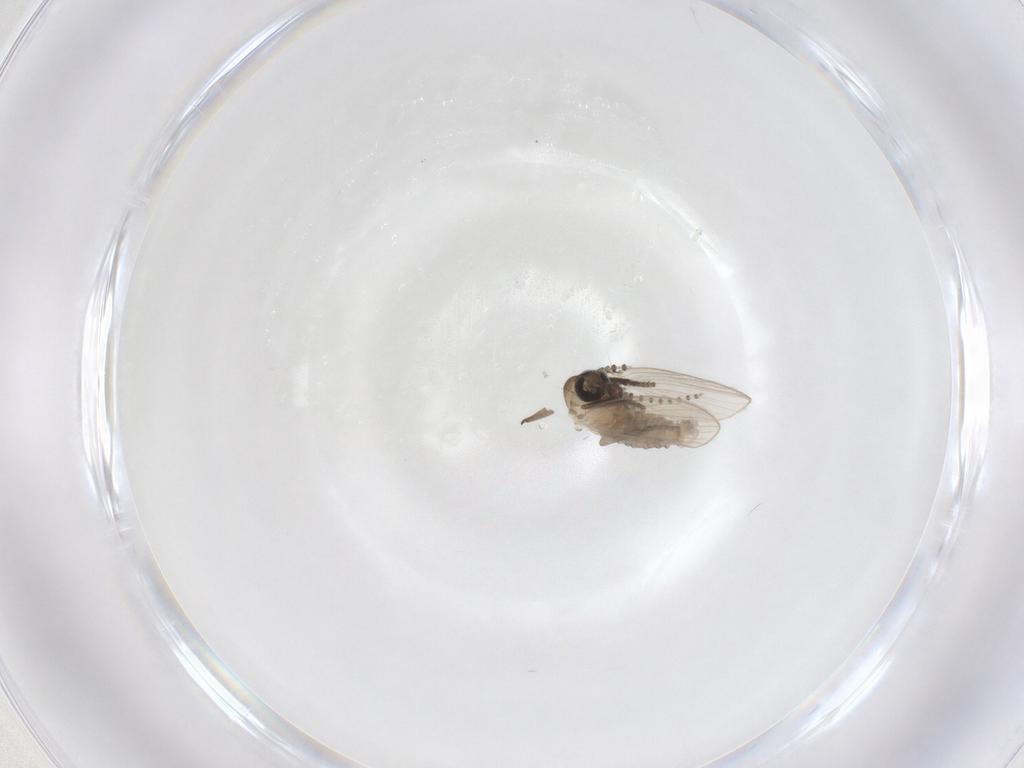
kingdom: Animalia
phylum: Arthropoda
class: Insecta
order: Diptera
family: Psychodidae
